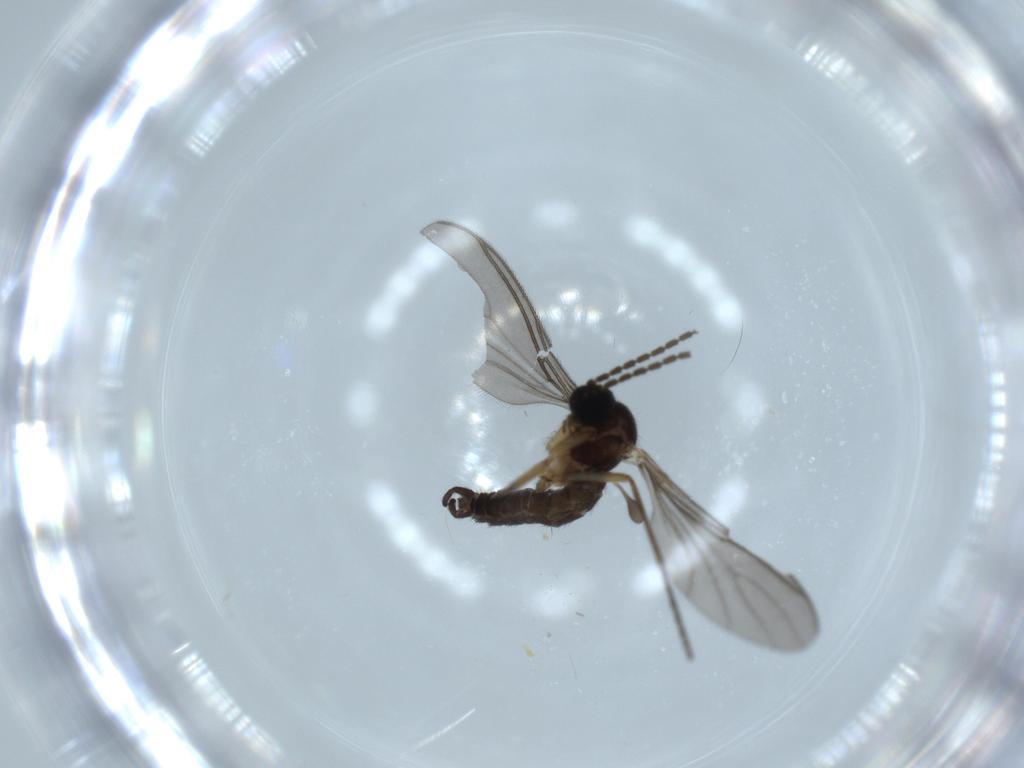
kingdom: Animalia
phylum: Arthropoda
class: Insecta
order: Diptera
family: Sciaridae
